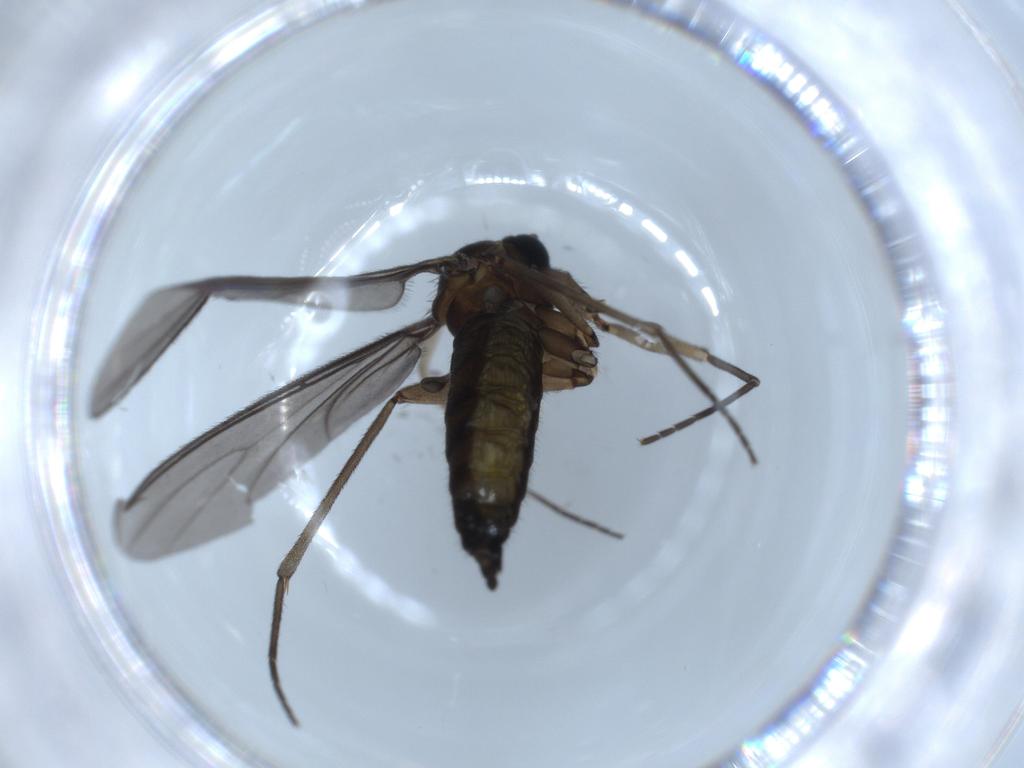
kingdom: Animalia
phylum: Arthropoda
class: Insecta
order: Diptera
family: Sciaridae
